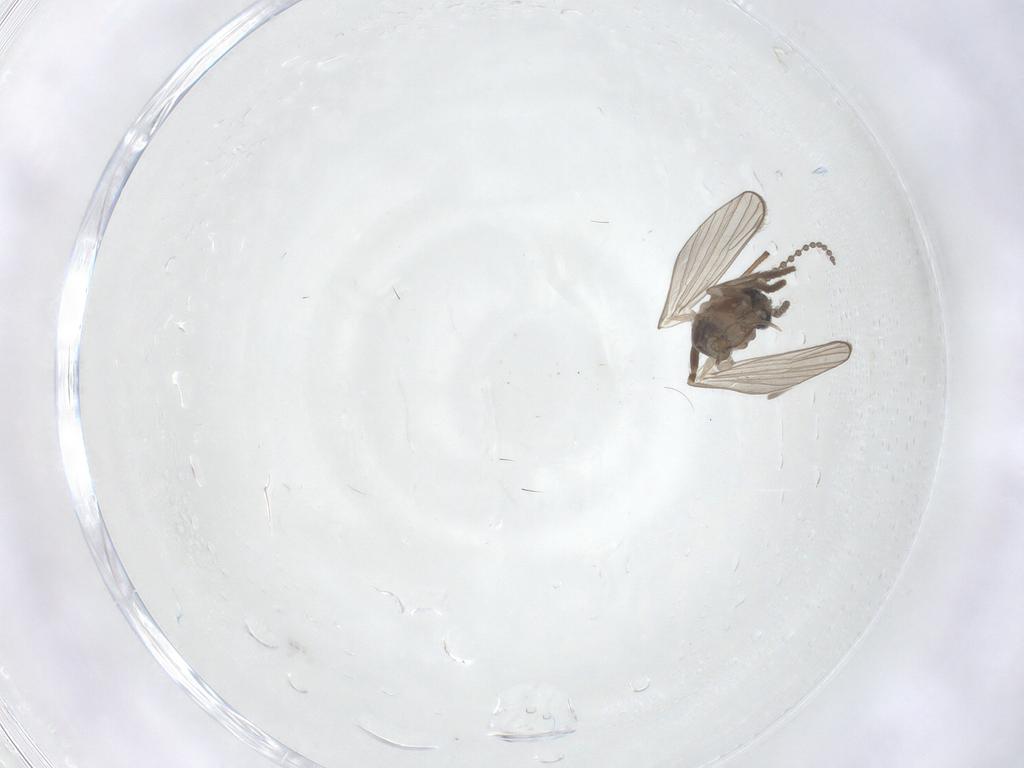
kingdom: Animalia
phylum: Arthropoda
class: Insecta
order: Diptera
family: Psychodidae
